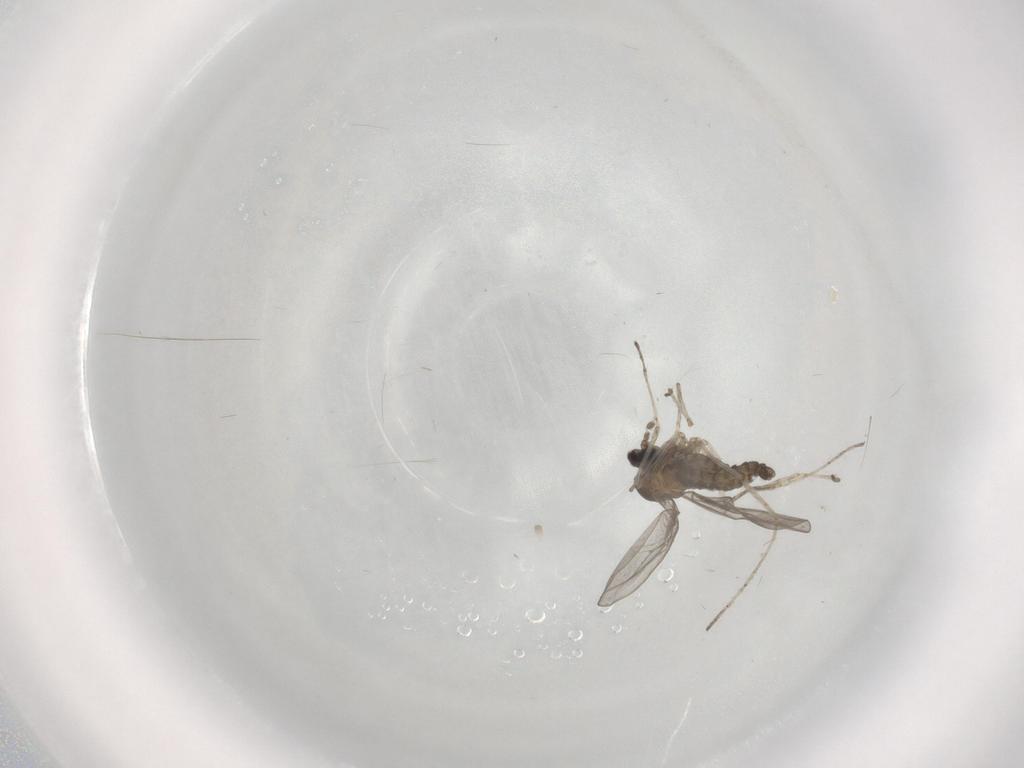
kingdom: Animalia
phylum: Arthropoda
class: Insecta
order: Diptera
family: Cecidomyiidae
